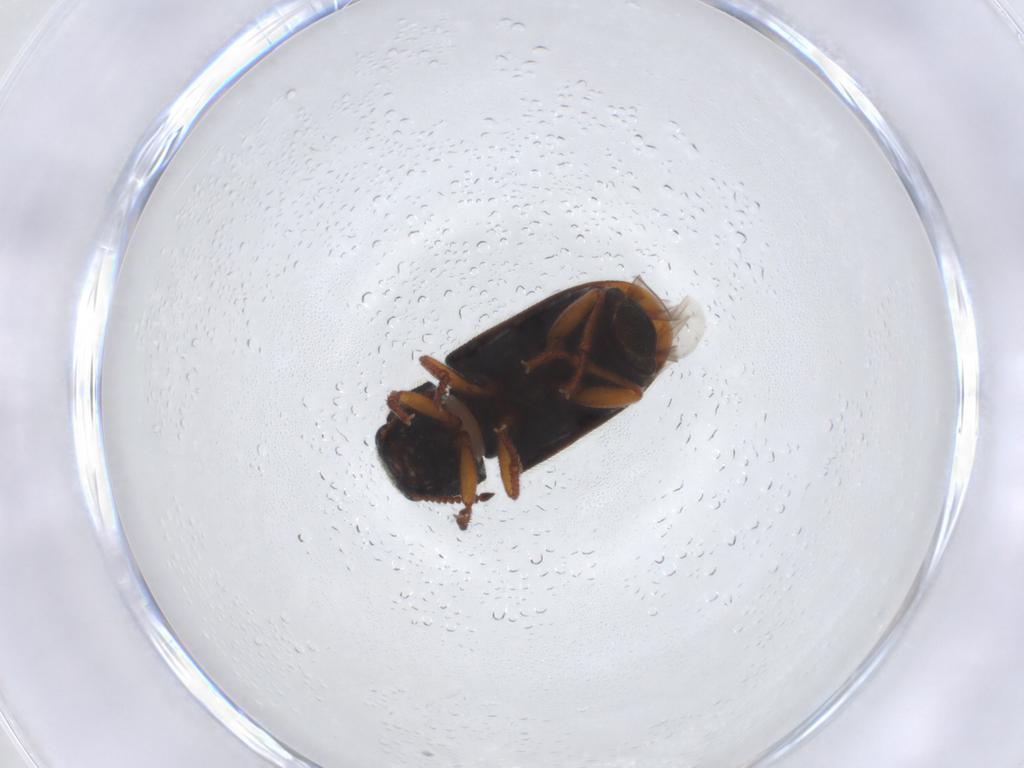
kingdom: Animalia
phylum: Arthropoda
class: Insecta
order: Coleoptera
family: Melyridae
